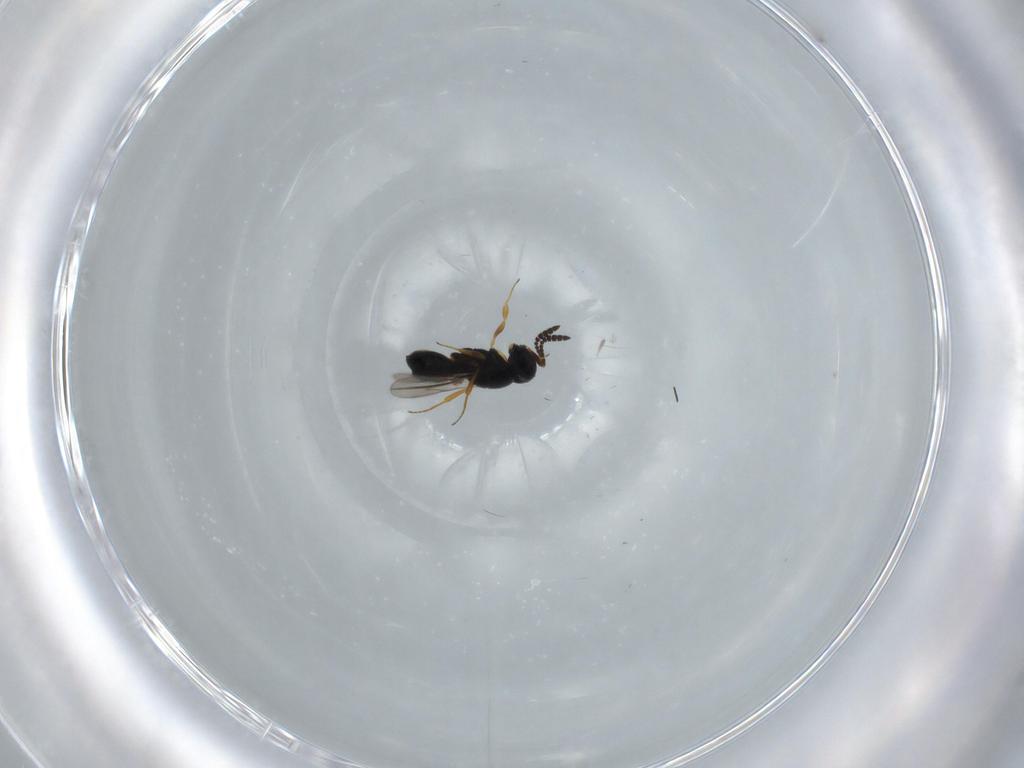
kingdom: Animalia
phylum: Arthropoda
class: Insecta
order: Hymenoptera
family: Scelionidae
